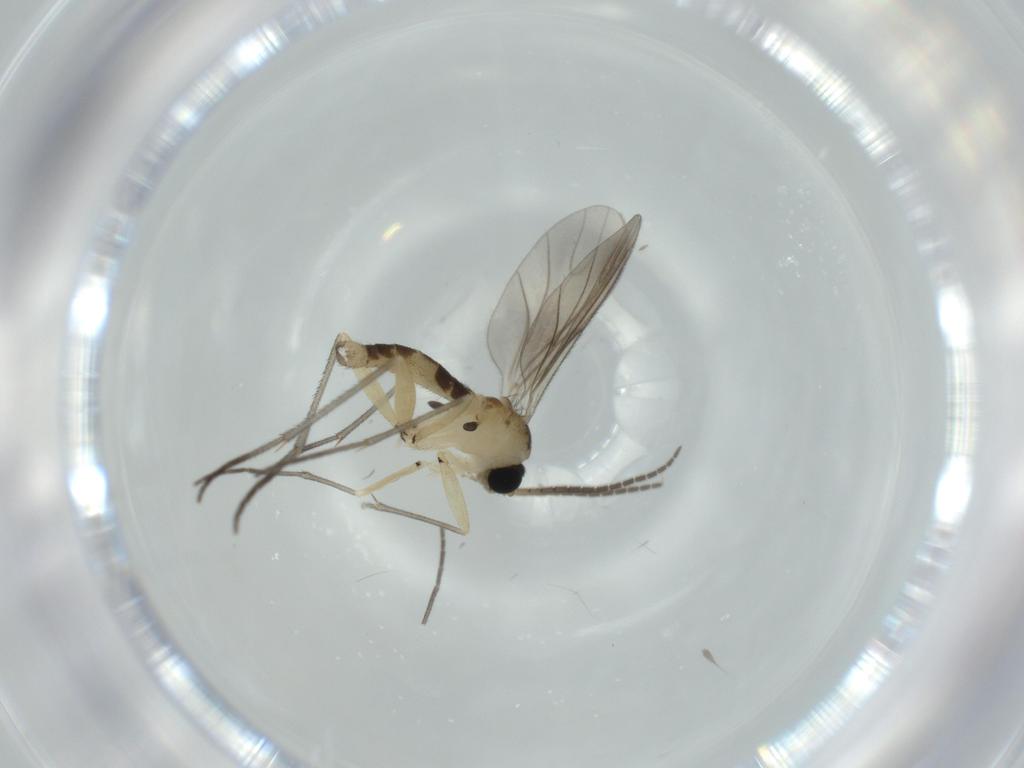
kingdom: Animalia
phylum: Arthropoda
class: Insecta
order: Diptera
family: Sciaridae
